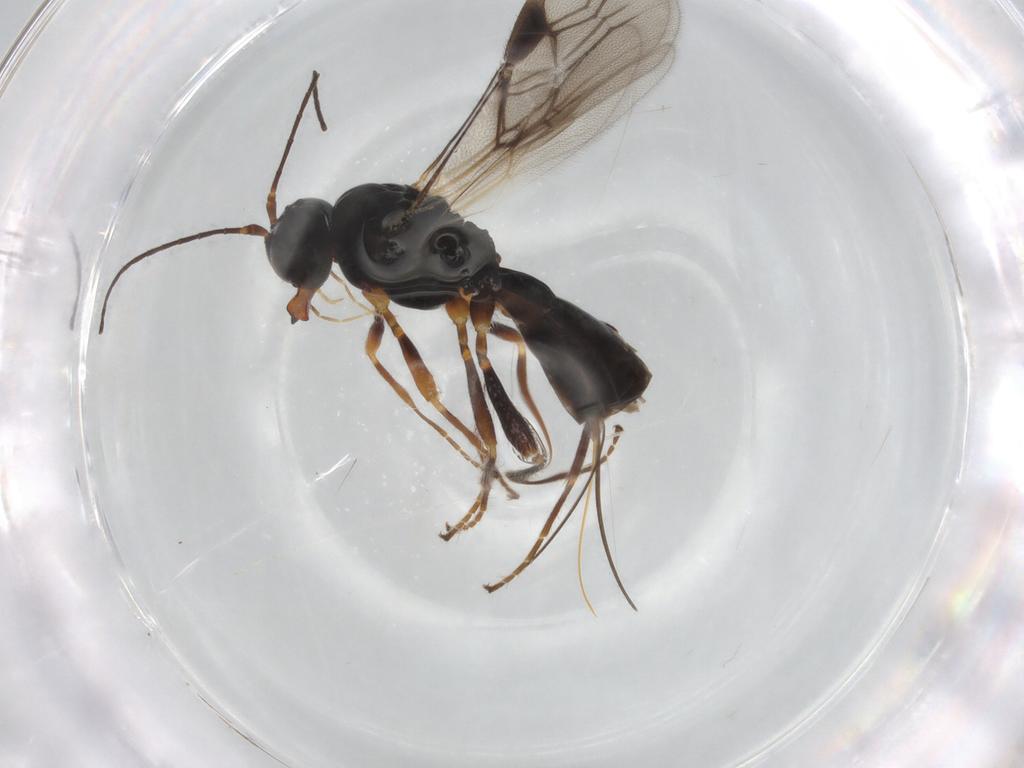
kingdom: Animalia
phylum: Arthropoda
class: Insecta
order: Hymenoptera
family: Braconidae
